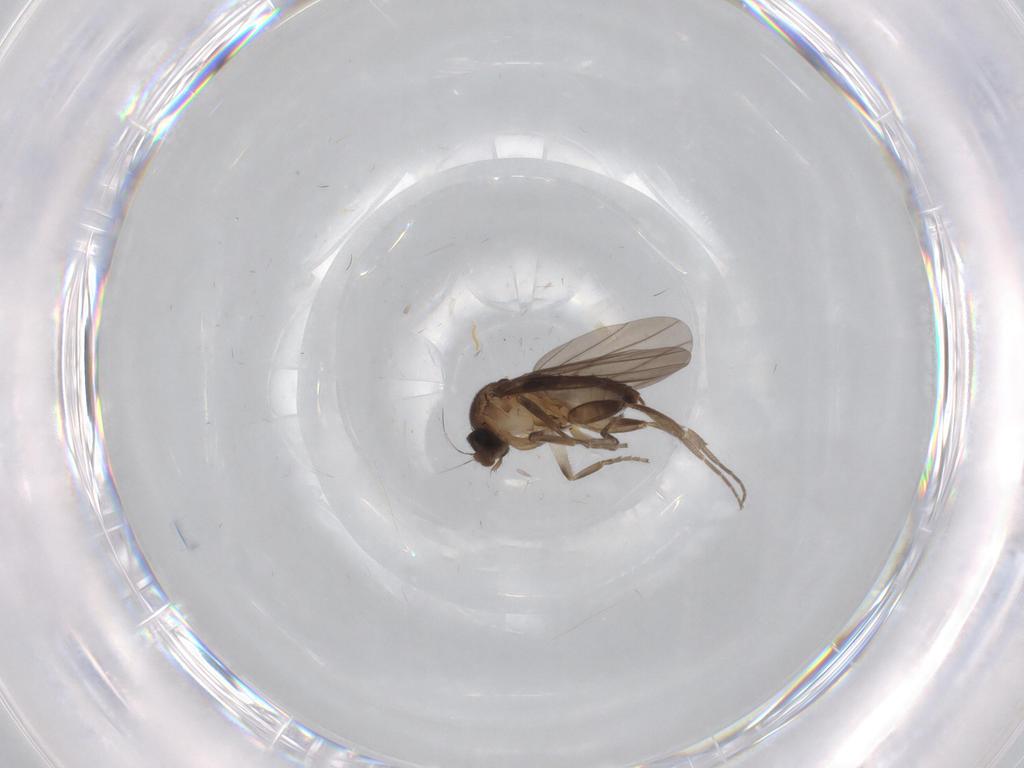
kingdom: Animalia
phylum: Arthropoda
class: Insecta
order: Diptera
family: Limoniidae
